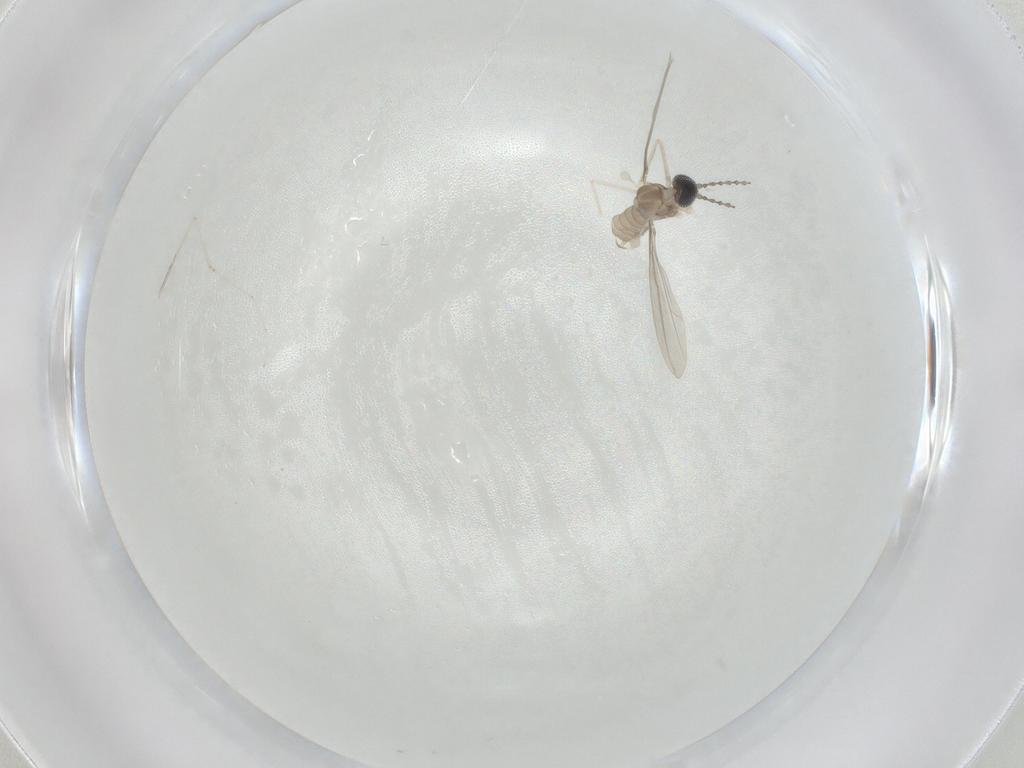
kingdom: Animalia
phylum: Arthropoda
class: Insecta
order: Diptera
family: Cecidomyiidae
